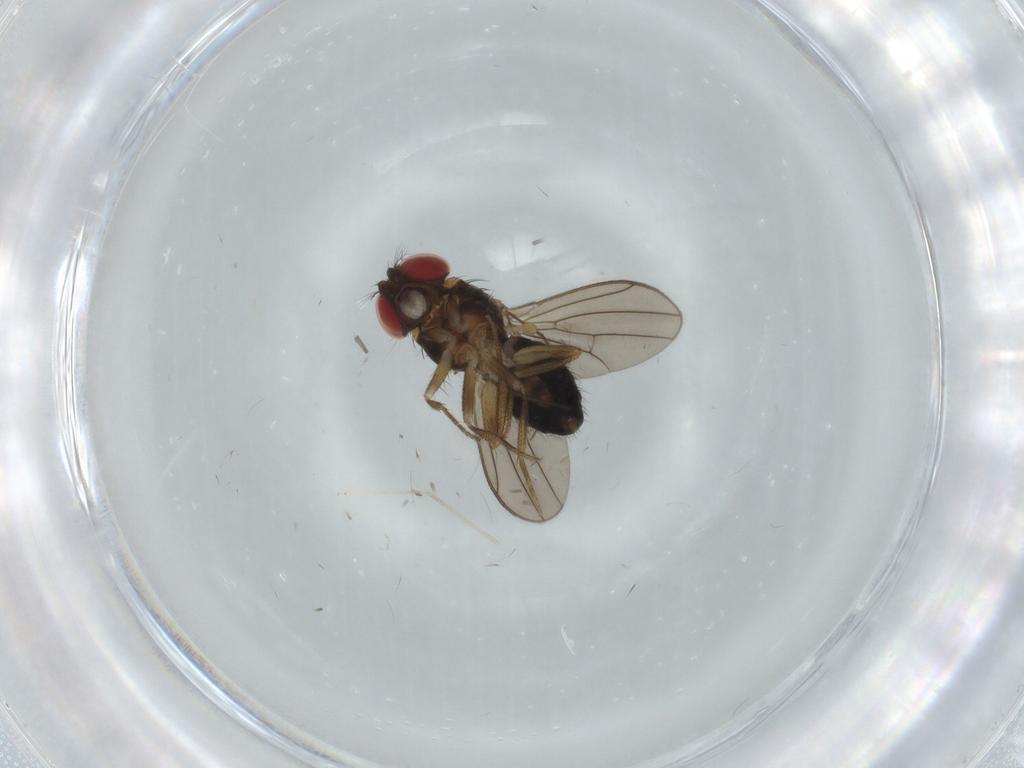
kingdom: Animalia
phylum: Arthropoda
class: Insecta
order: Diptera
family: Drosophilidae
